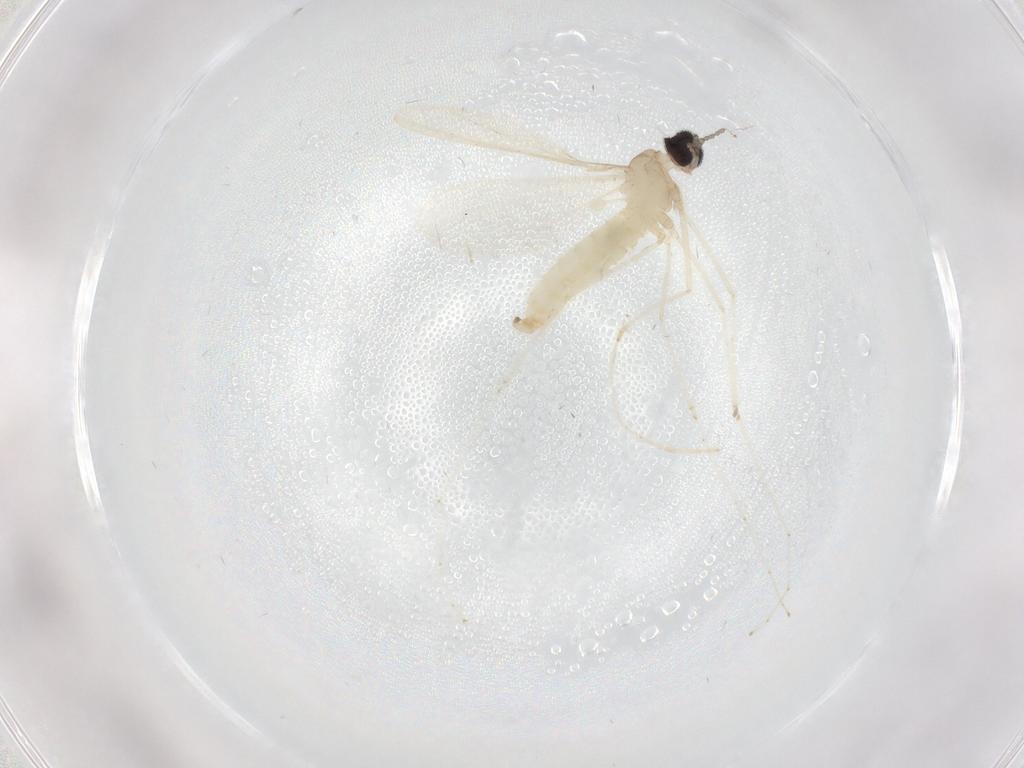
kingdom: Animalia
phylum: Arthropoda
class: Insecta
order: Diptera
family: Cecidomyiidae
